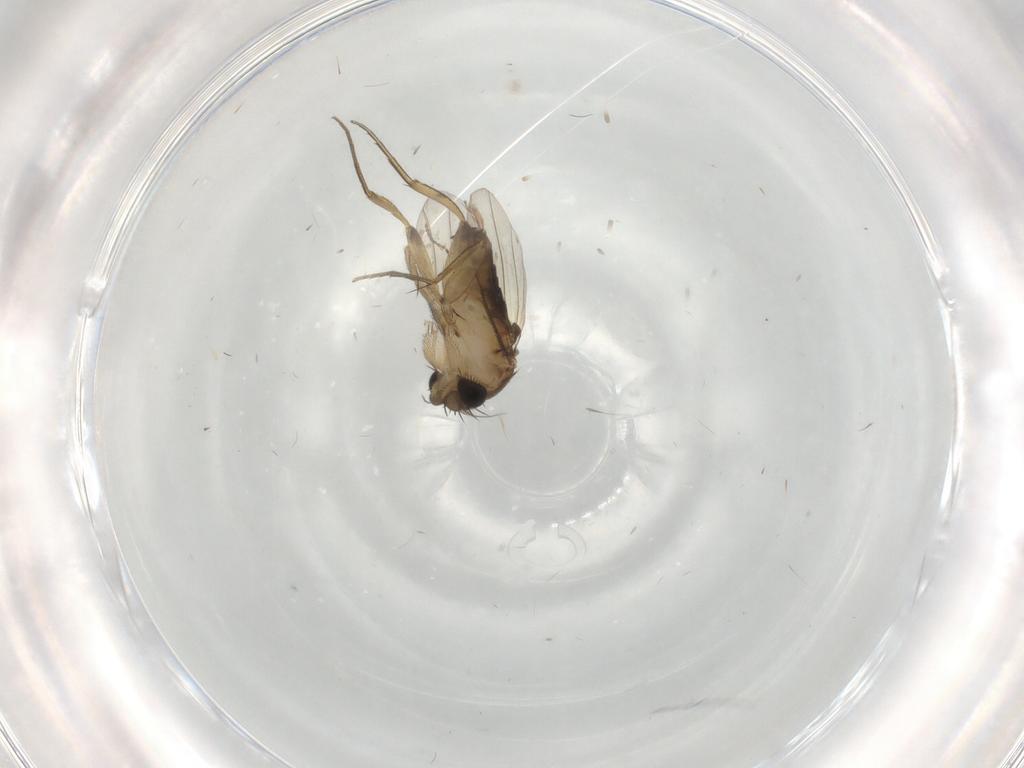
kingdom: Animalia
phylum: Arthropoda
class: Insecta
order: Diptera
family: Phoridae
